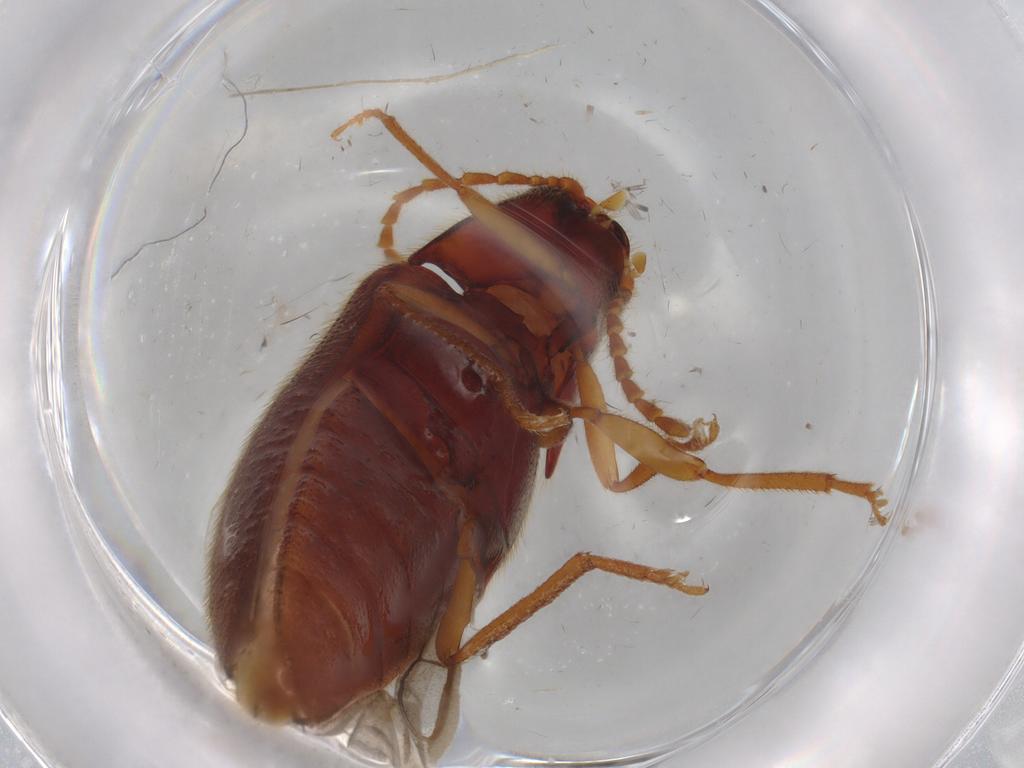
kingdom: Animalia
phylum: Arthropoda
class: Insecta
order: Coleoptera
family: Elateridae
